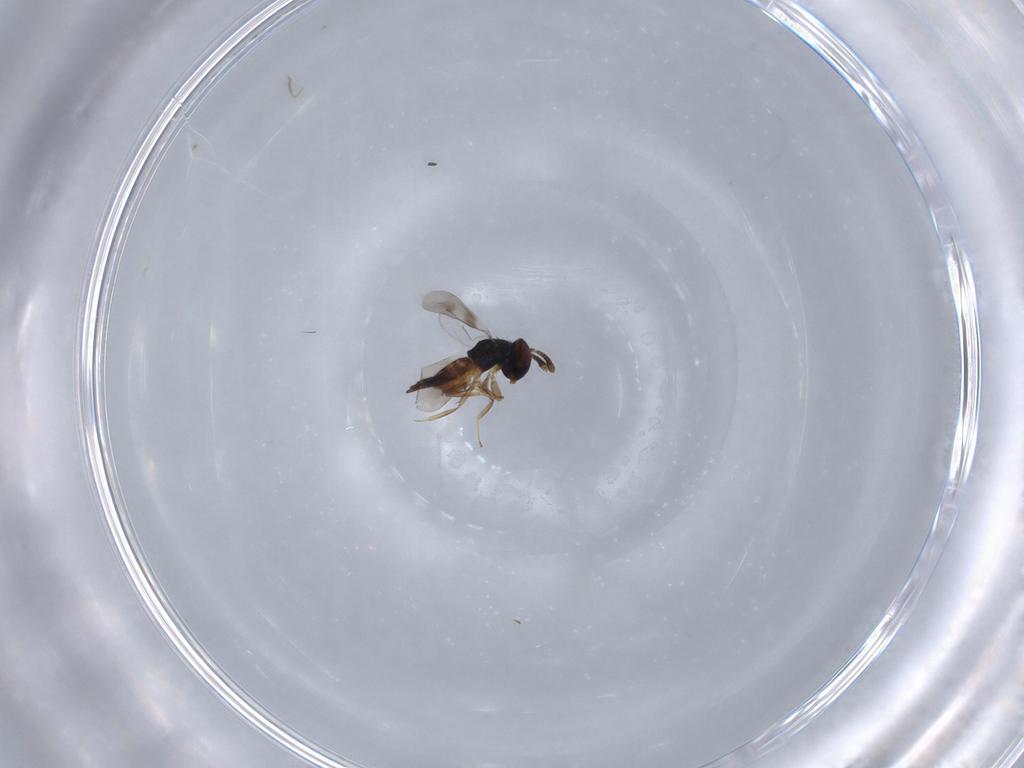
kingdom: Animalia
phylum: Arthropoda
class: Insecta
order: Hymenoptera
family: Pteromalidae
